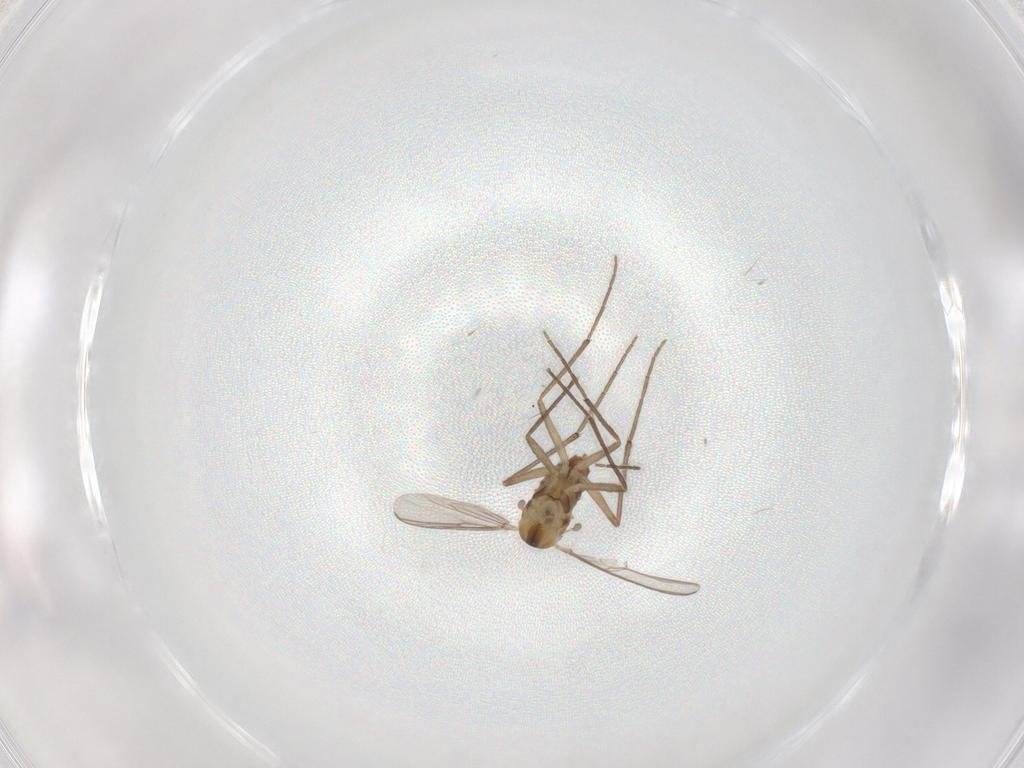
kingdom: Animalia
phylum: Arthropoda
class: Insecta
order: Diptera
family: Chironomidae
